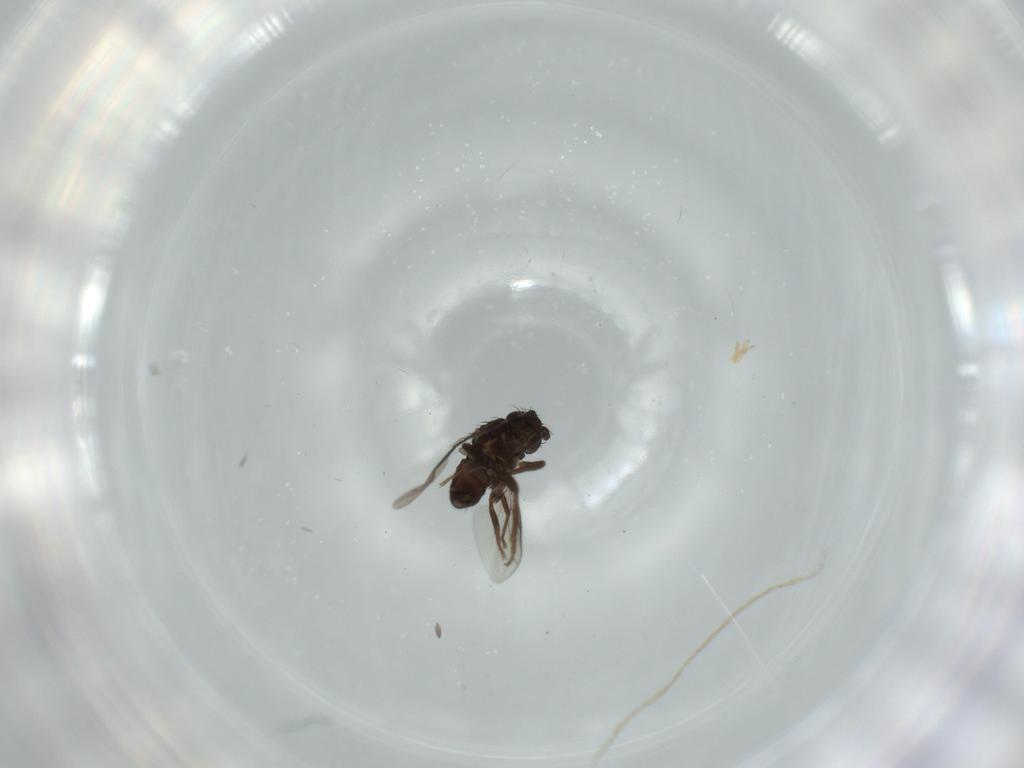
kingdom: Animalia
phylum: Arthropoda
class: Insecta
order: Diptera
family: Sphaeroceridae
